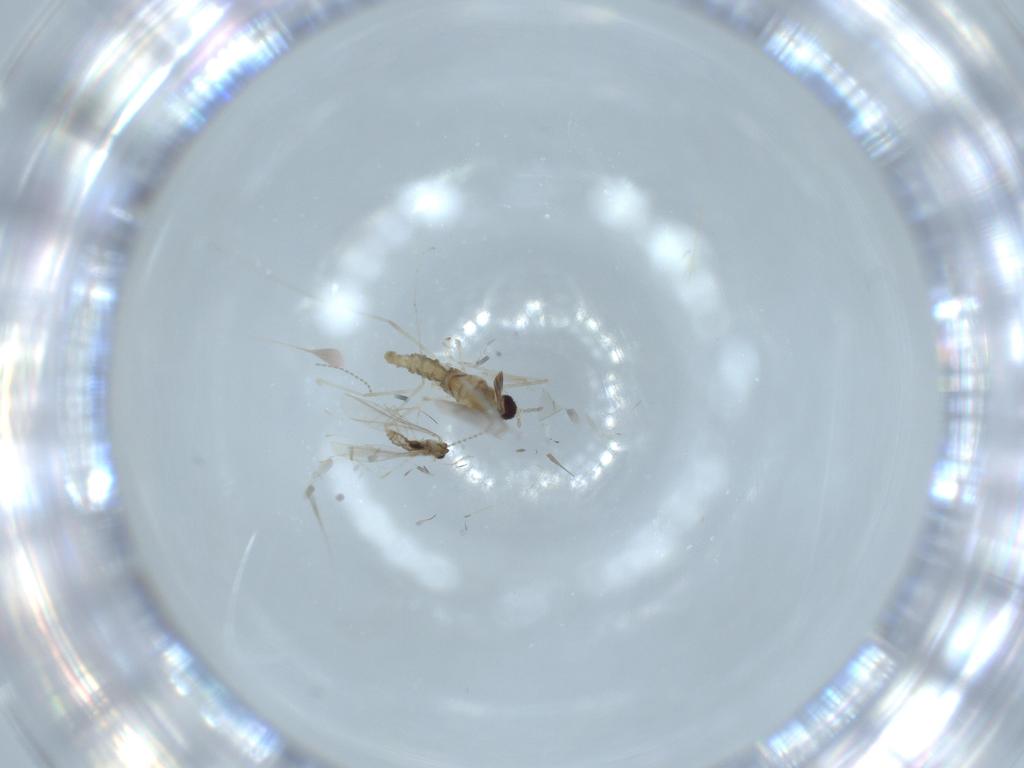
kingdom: Animalia
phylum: Arthropoda
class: Insecta
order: Diptera
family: Cecidomyiidae
